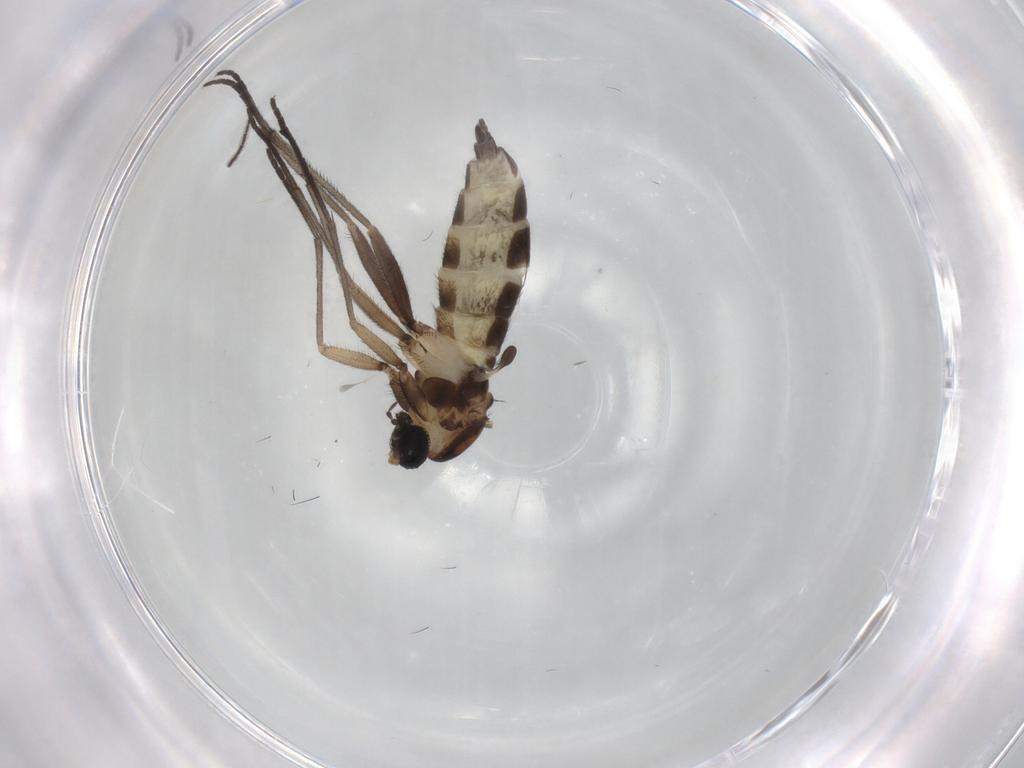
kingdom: Animalia
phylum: Arthropoda
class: Insecta
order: Diptera
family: Sciaridae
